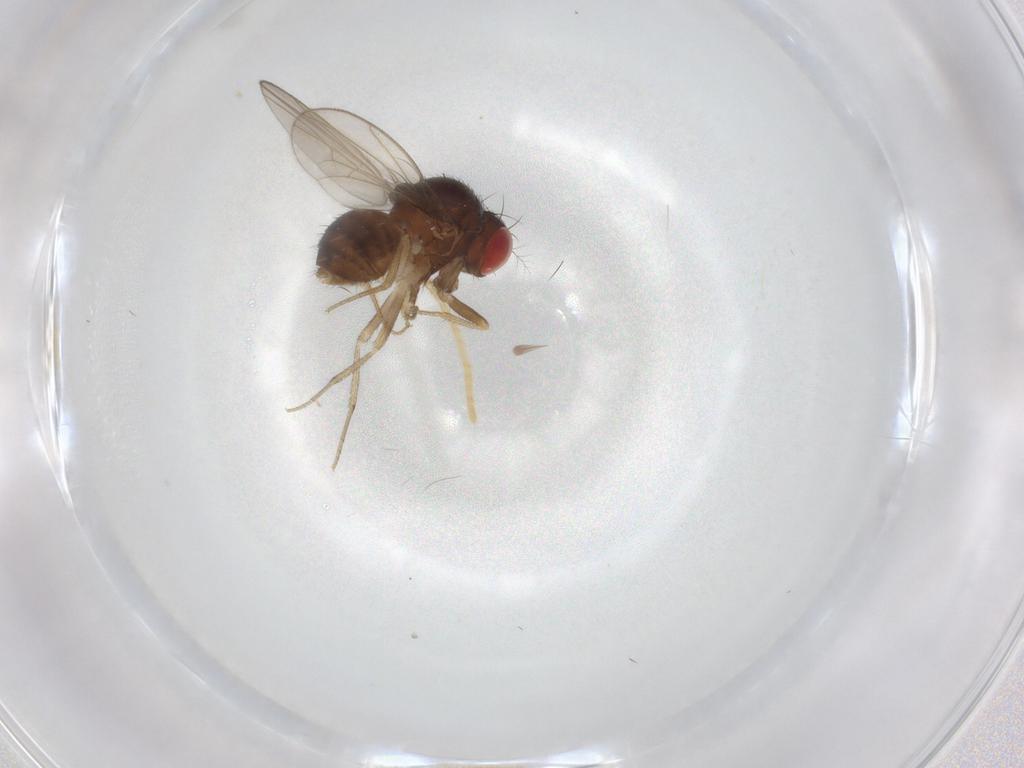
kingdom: Animalia
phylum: Arthropoda
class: Insecta
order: Diptera
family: Drosophilidae
